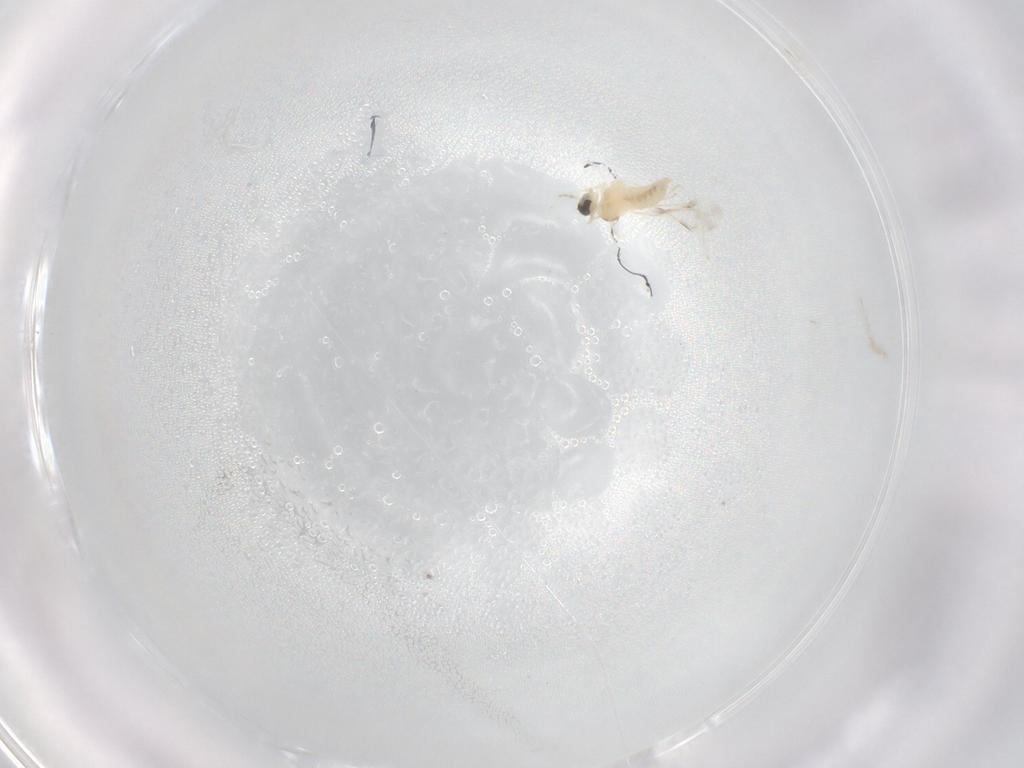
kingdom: Animalia
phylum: Arthropoda
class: Insecta
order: Diptera
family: Cecidomyiidae
